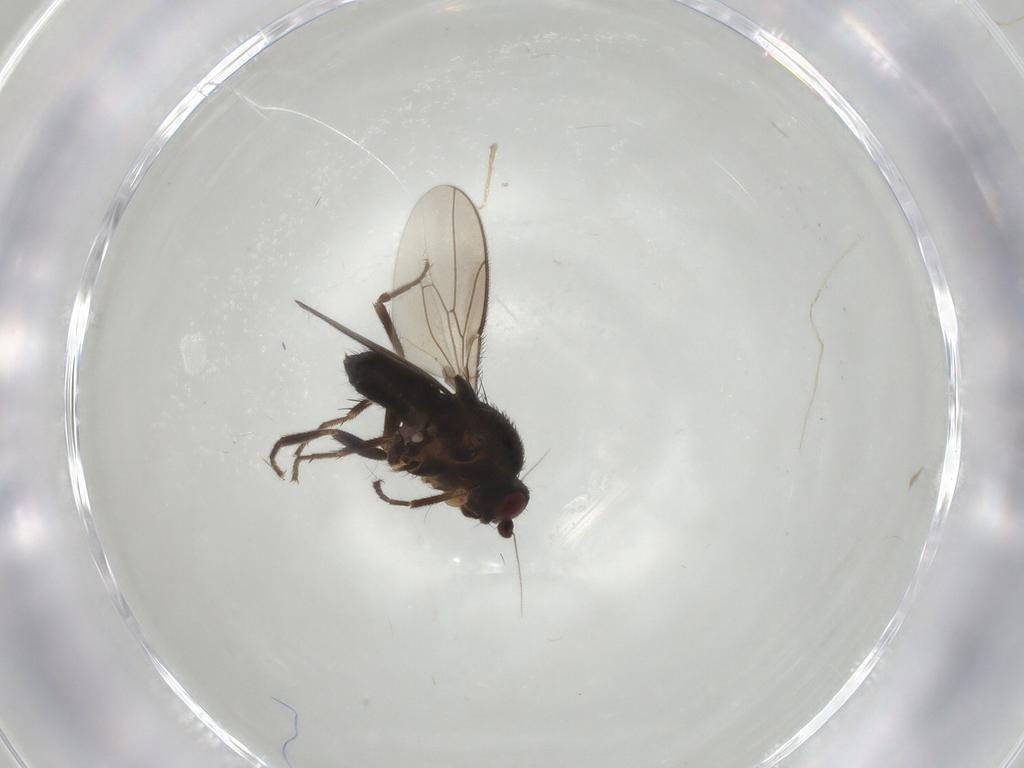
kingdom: Animalia
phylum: Arthropoda
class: Insecta
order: Diptera
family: Sphaeroceridae
